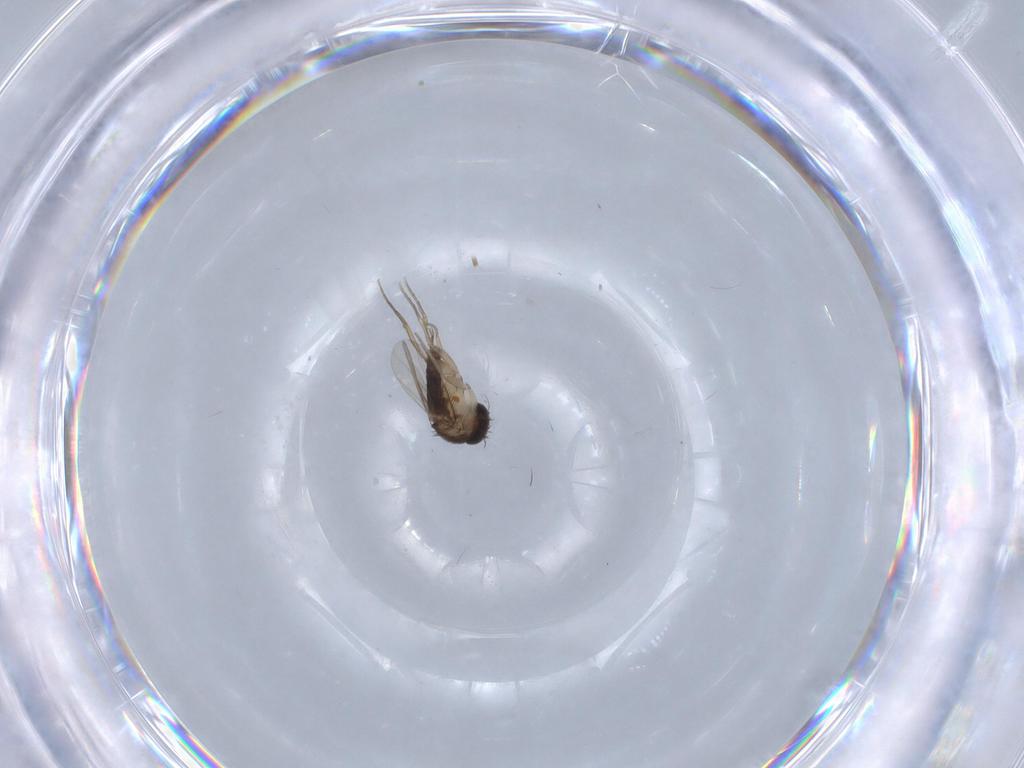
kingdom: Animalia
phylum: Arthropoda
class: Insecta
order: Diptera
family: Phoridae
